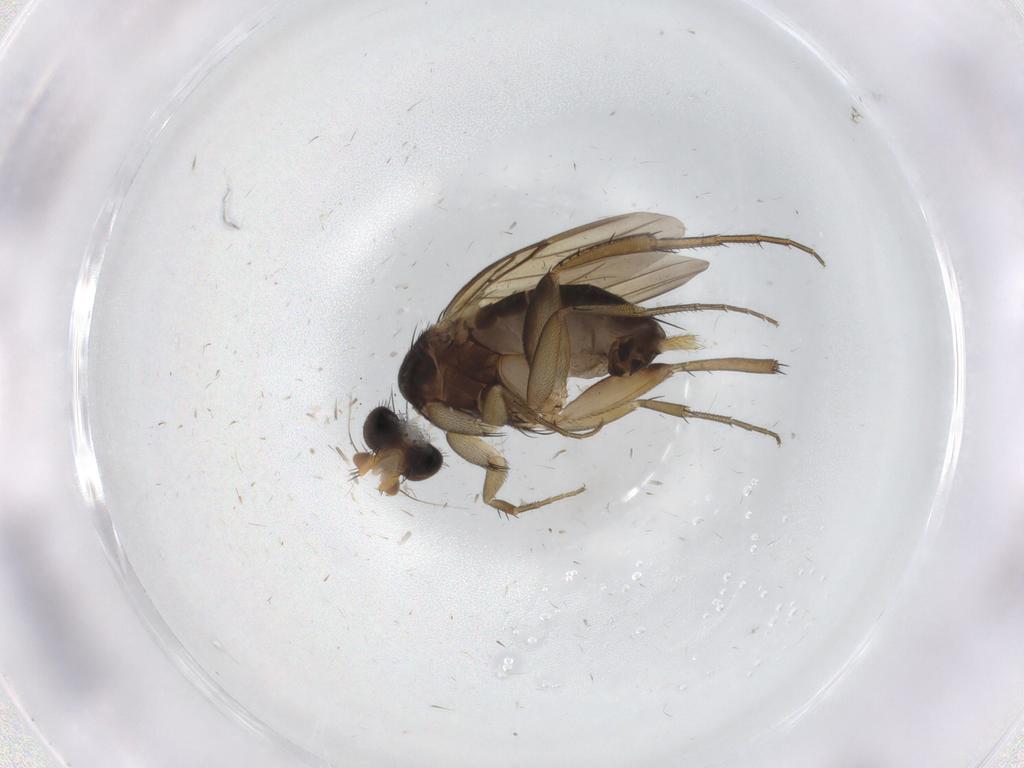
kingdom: Animalia
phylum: Arthropoda
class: Insecta
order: Diptera
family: Phoridae
